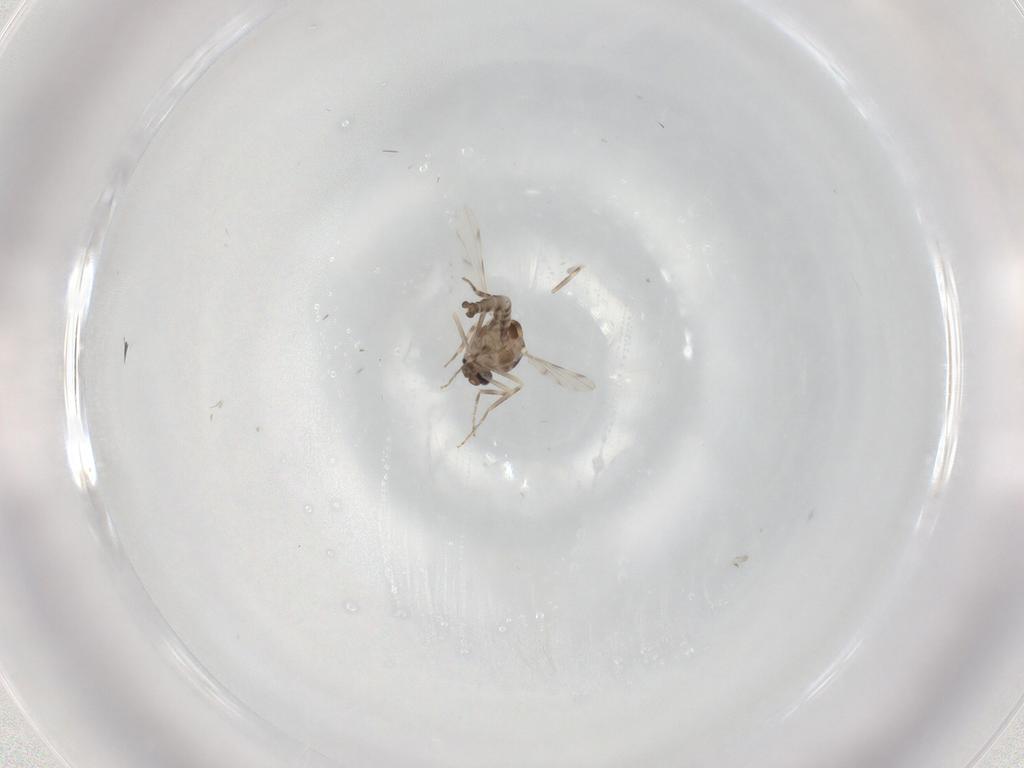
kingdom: Animalia
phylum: Arthropoda
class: Insecta
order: Diptera
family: Ceratopogonidae
